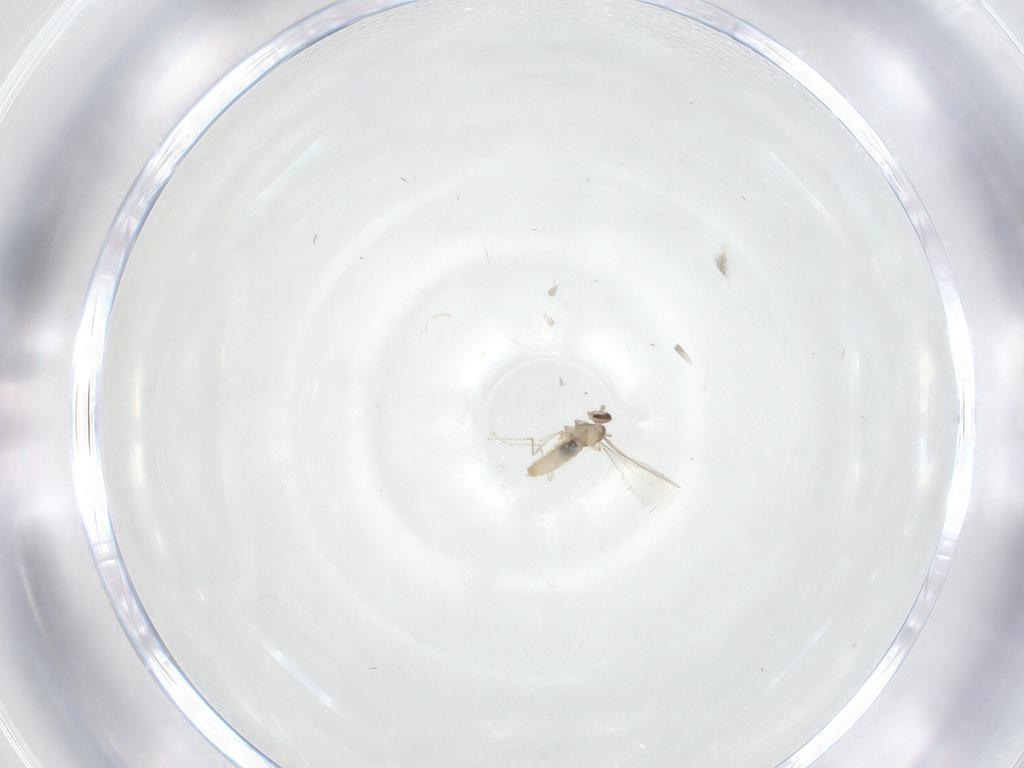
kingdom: Animalia
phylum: Arthropoda
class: Insecta
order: Diptera
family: Cecidomyiidae
